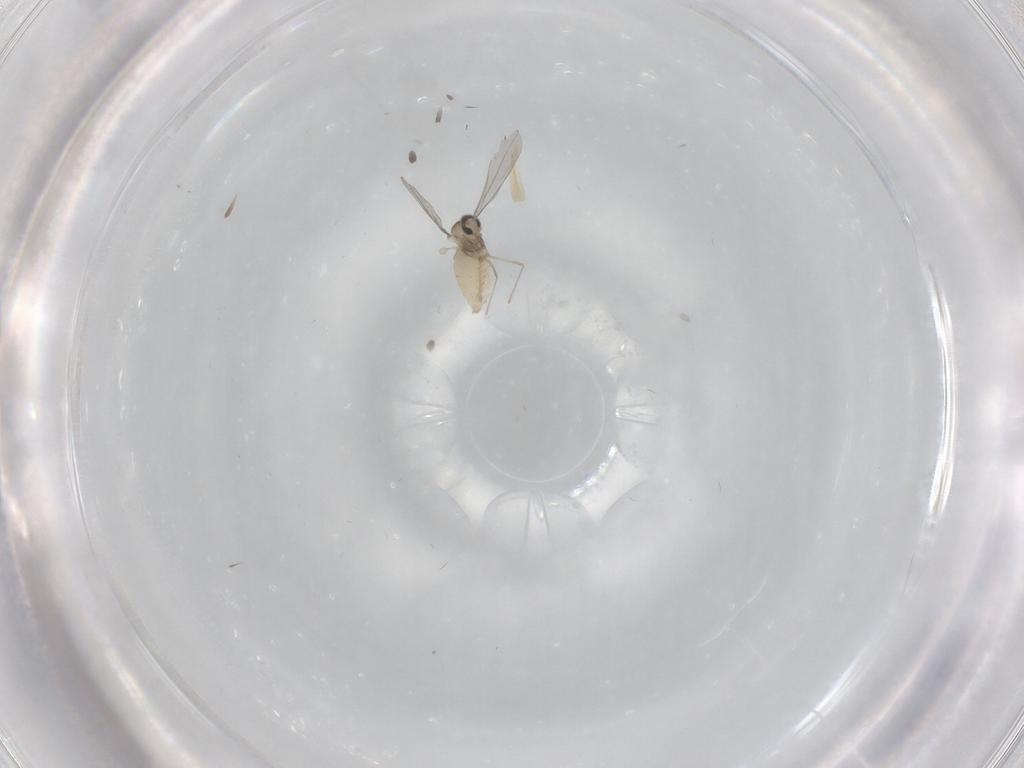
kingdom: Animalia
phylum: Arthropoda
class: Insecta
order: Diptera
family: Cecidomyiidae
